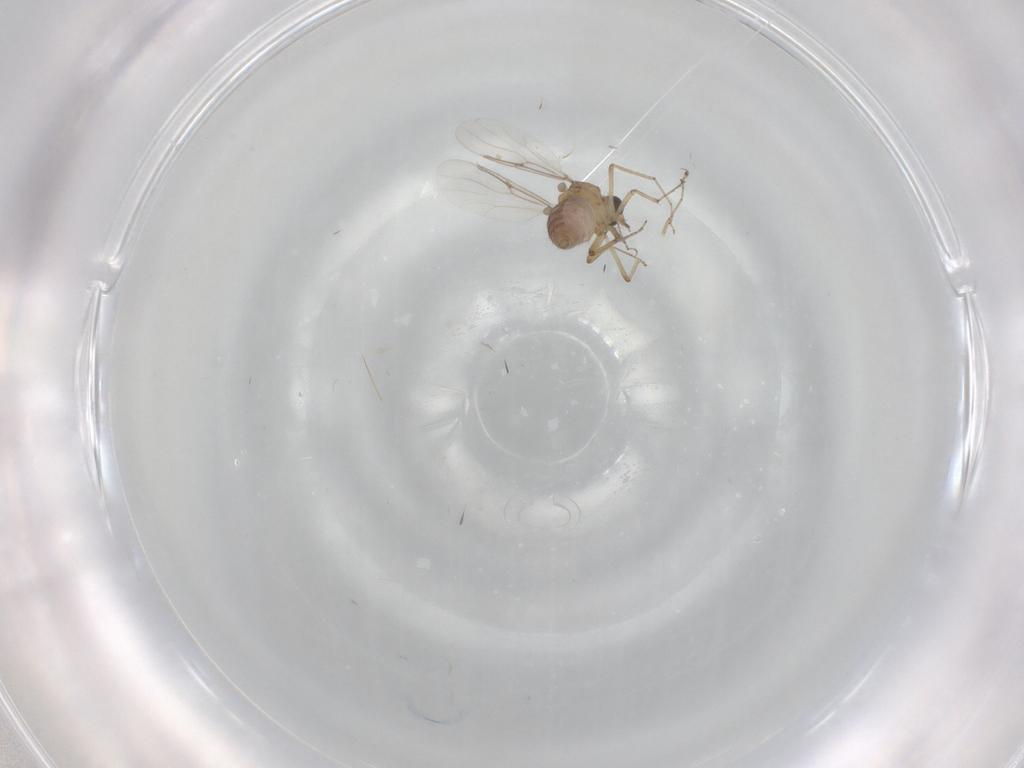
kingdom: Animalia
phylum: Arthropoda
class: Insecta
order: Diptera
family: Ceratopogonidae
